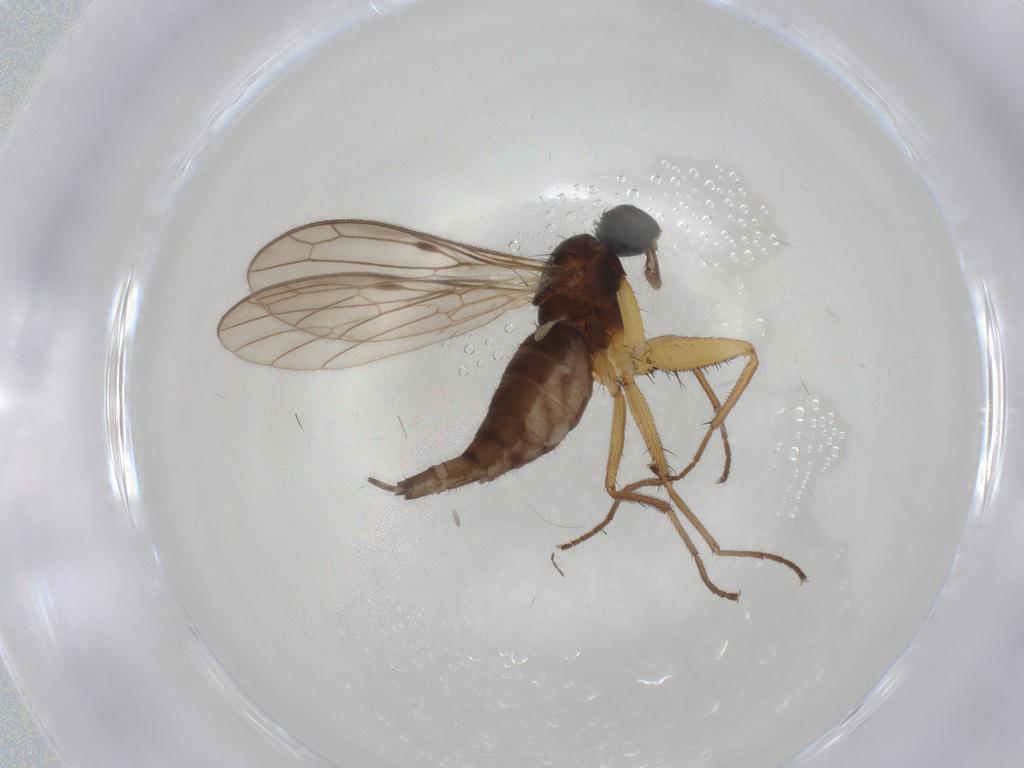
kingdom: Animalia
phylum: Arthropoda
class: Insecta
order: Diptera
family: Empididae
